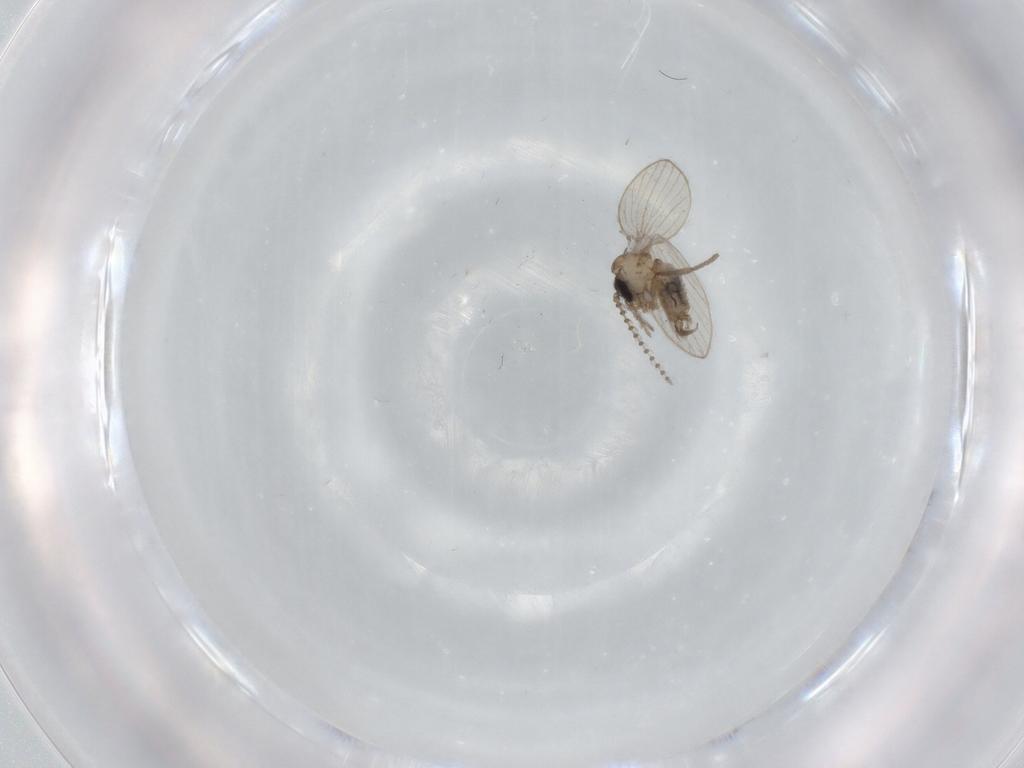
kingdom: Animalia
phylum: Arthropoda
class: Insecta
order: Diptera
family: Psychodidae
